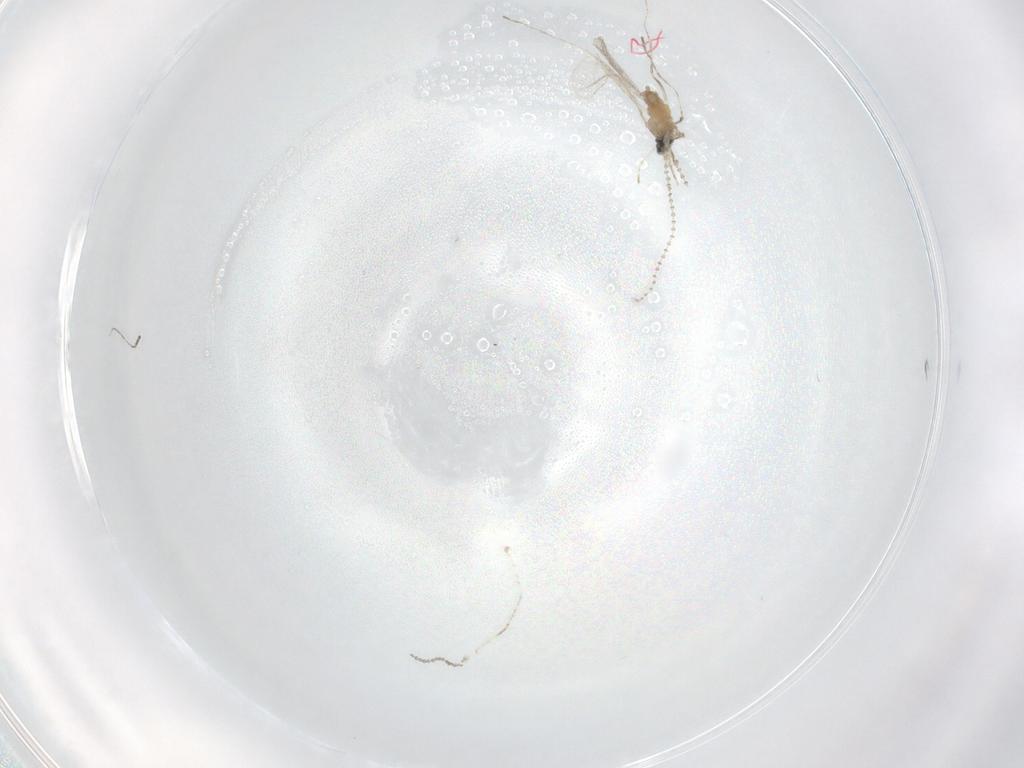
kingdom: Animalia
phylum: Arthropoda
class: Insecta
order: Diptera
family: Cecidomyiidae
